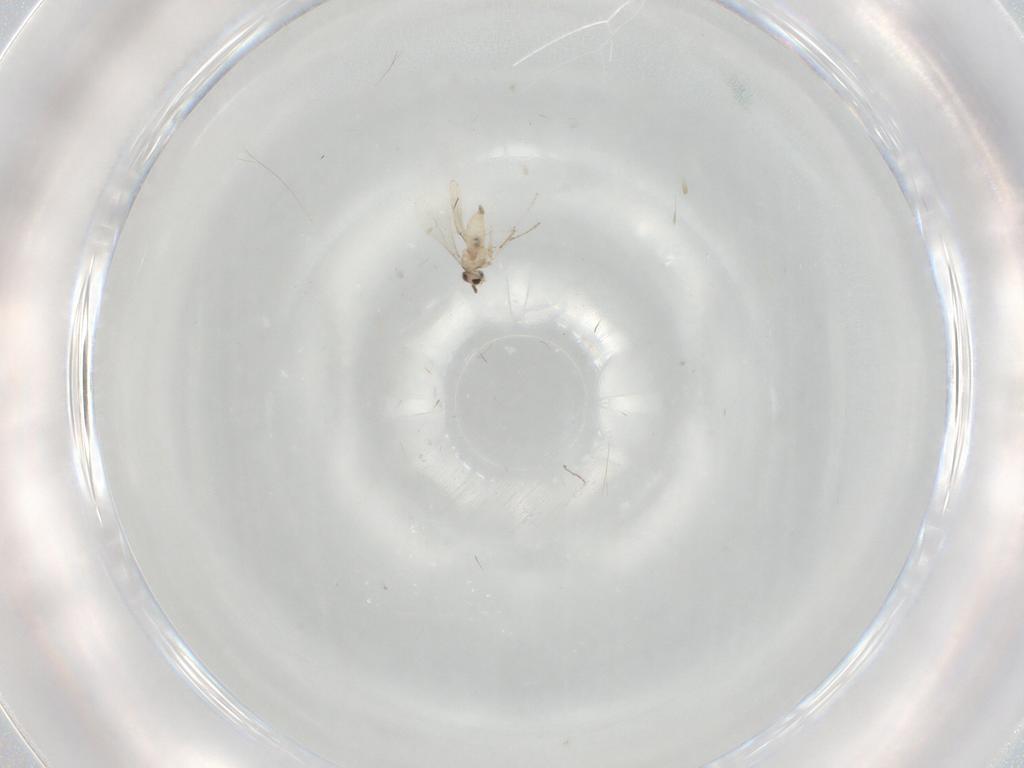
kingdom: Animalia
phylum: Arthropoda
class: Insecta
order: Diptera
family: Cecidomyiidae
